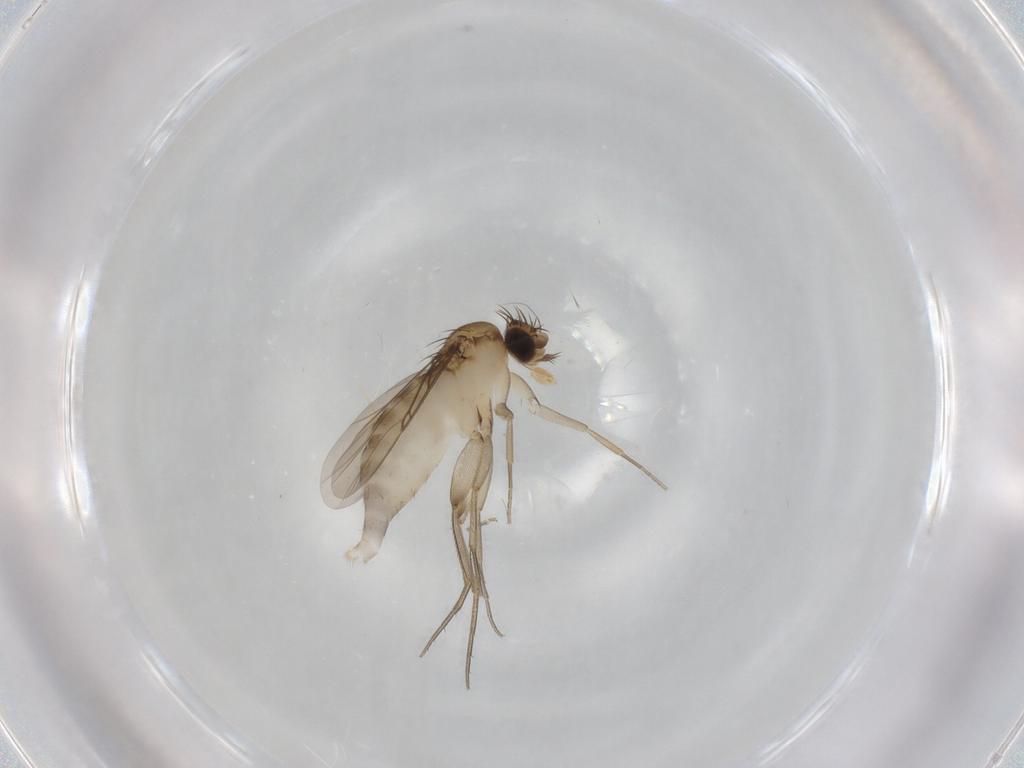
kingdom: Animalia
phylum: Arthropoda
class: Insecta
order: Diptera
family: Phoridae
